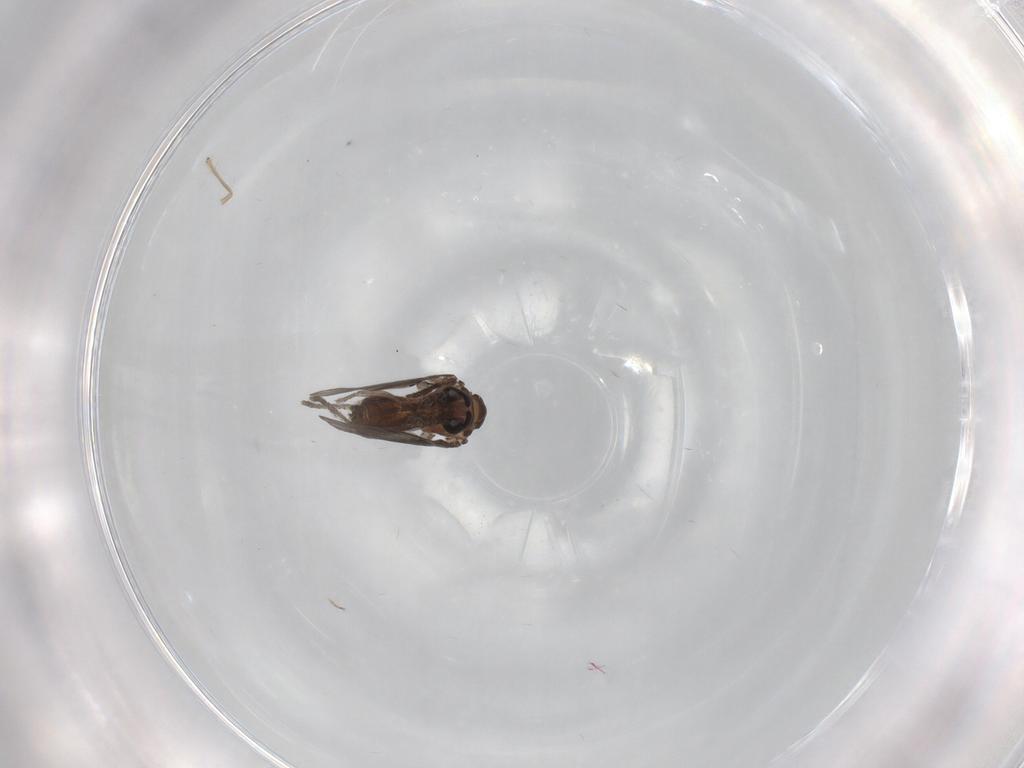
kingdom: Animalia
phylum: Arthropoda
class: Insecta
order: Diptera
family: Psychodidae
